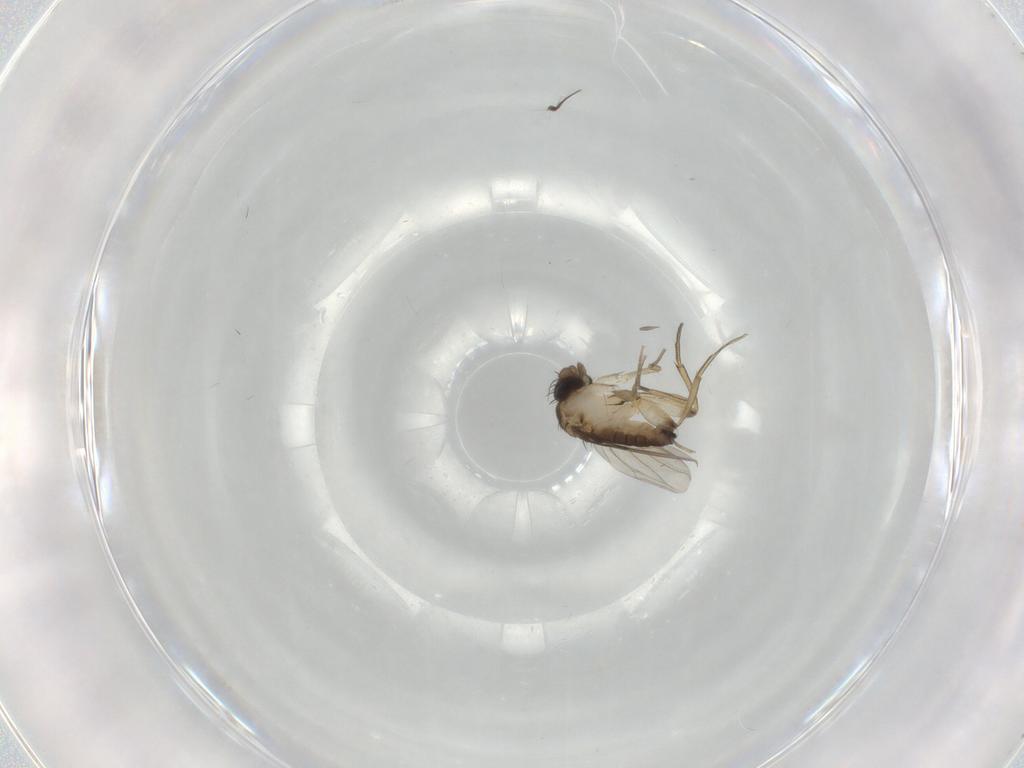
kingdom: Animalia
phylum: Arthropoda
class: Insecta
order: Diptera
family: Phoridae
